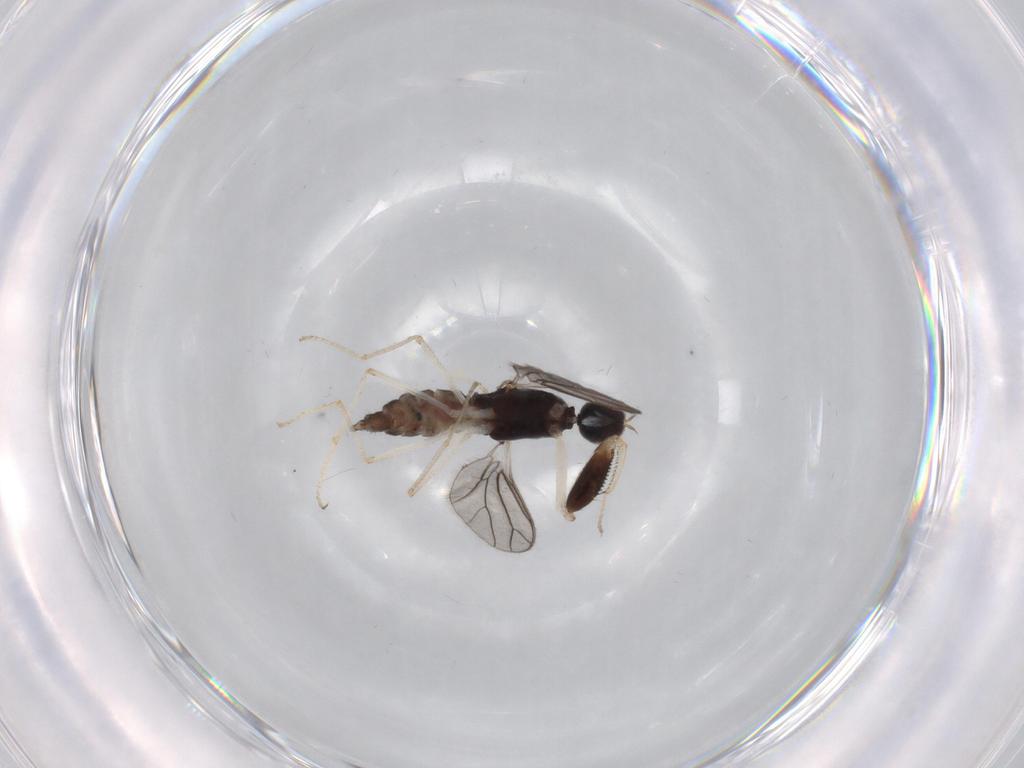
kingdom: Animalia
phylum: Arthropoda
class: Insecta
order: Diptera
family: Empididae
